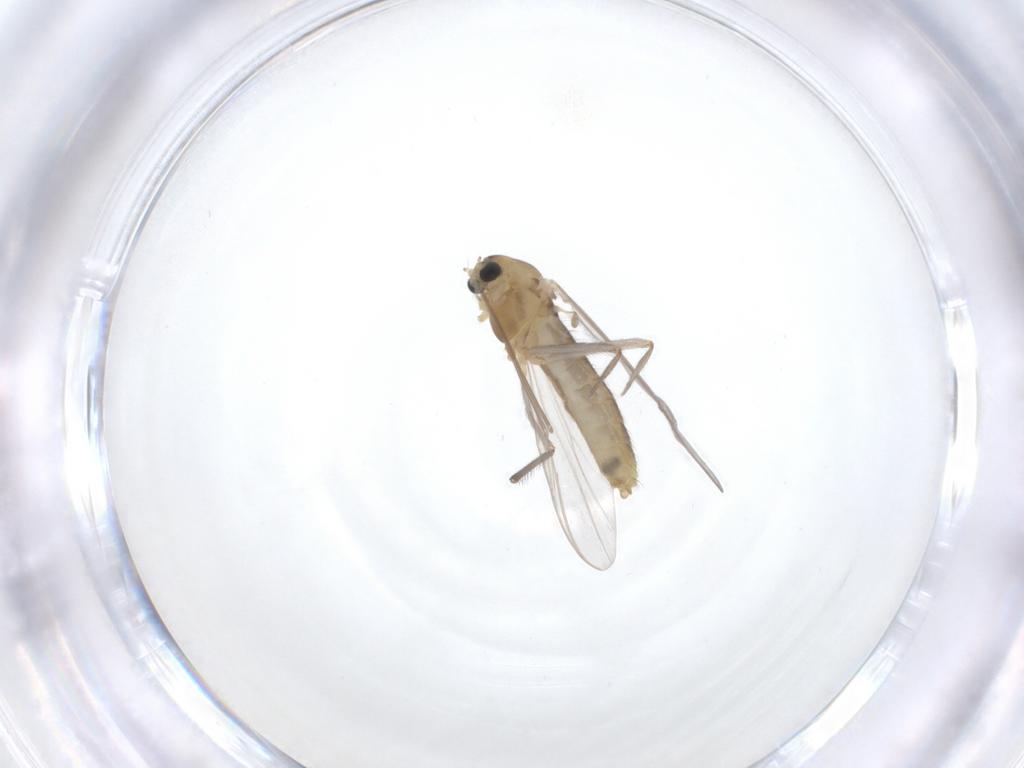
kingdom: Animalia
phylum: Arthropoda
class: Insecta
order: Diptera
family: Chironomidae
